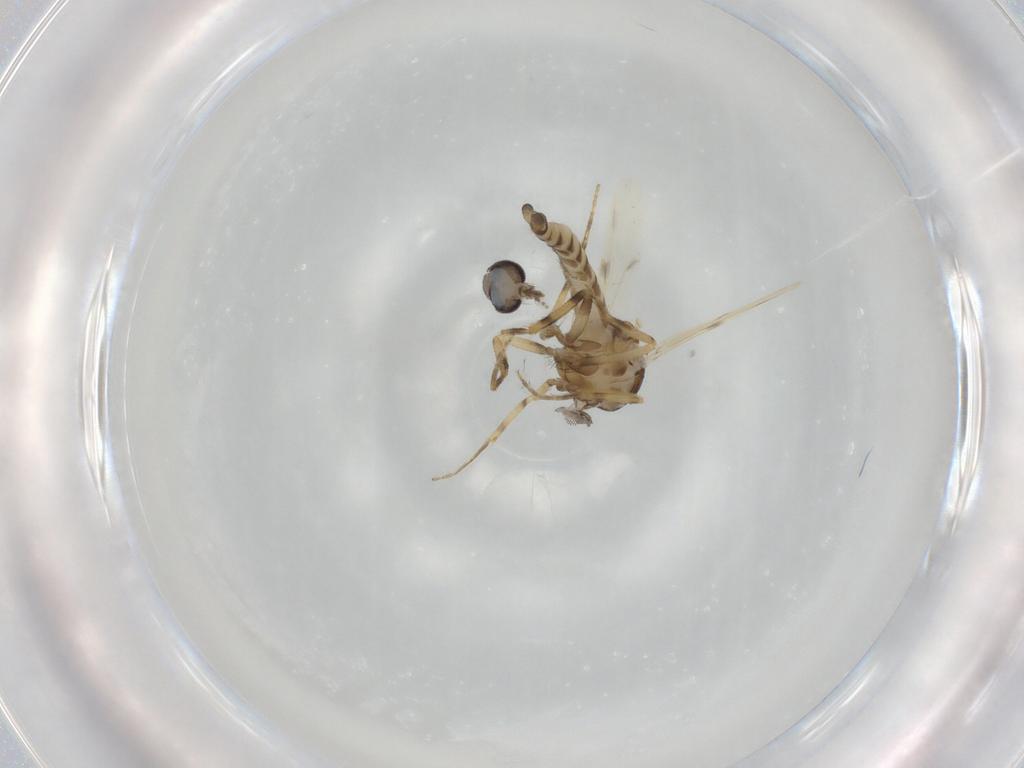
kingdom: Animalia
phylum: Arthropoda
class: Insecta
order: Diptera
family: Ceratopogonidae
